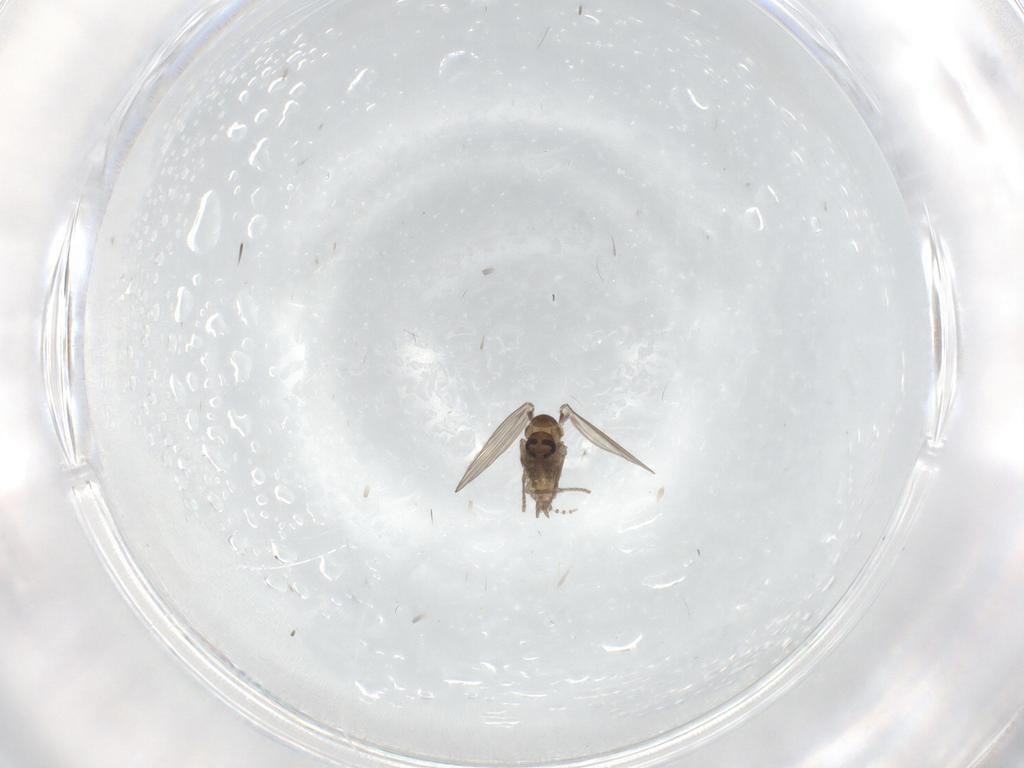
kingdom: Animalia
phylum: Arthropoda
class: Insecta
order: Diptera
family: Psychodidae
